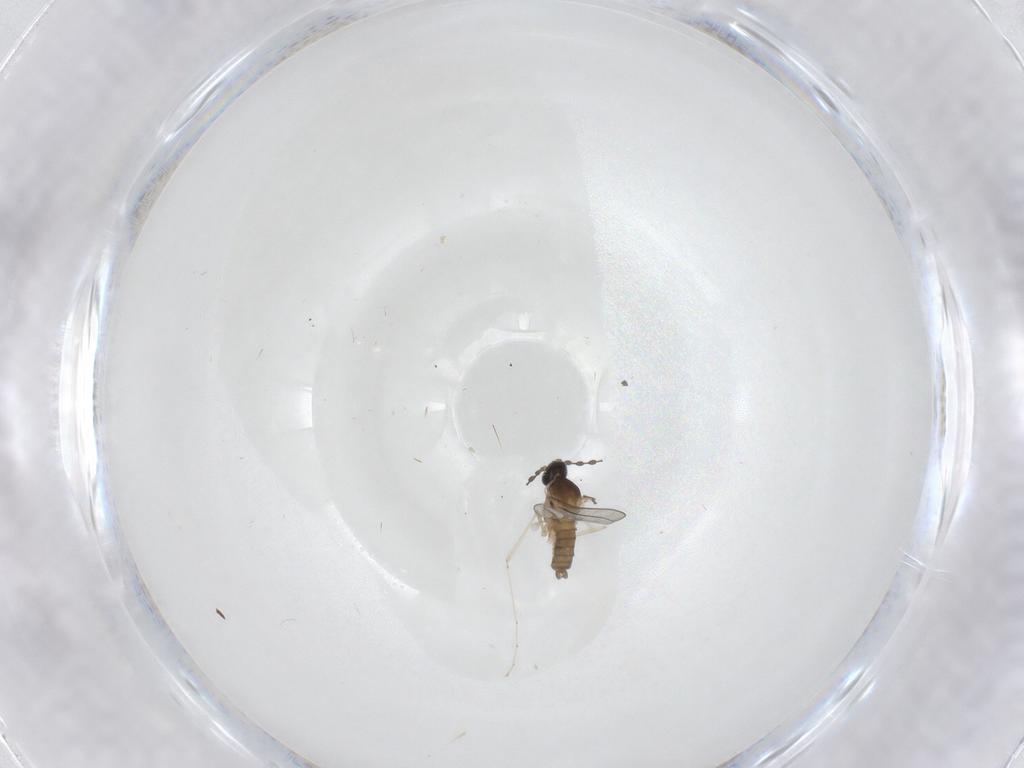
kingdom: Animalia
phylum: Arthropoda
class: Insecta
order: Diptera
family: Cecidomyiidae
